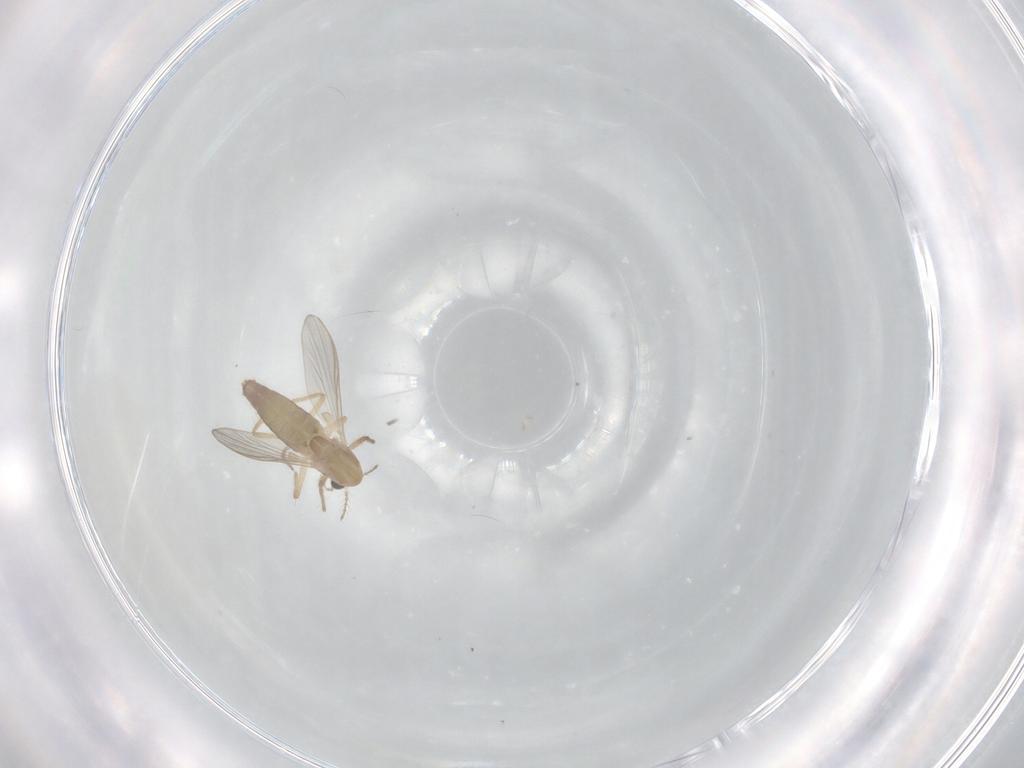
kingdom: Animalia
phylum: Arthropoda
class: Insecta
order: Diptera
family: Chironomidae
